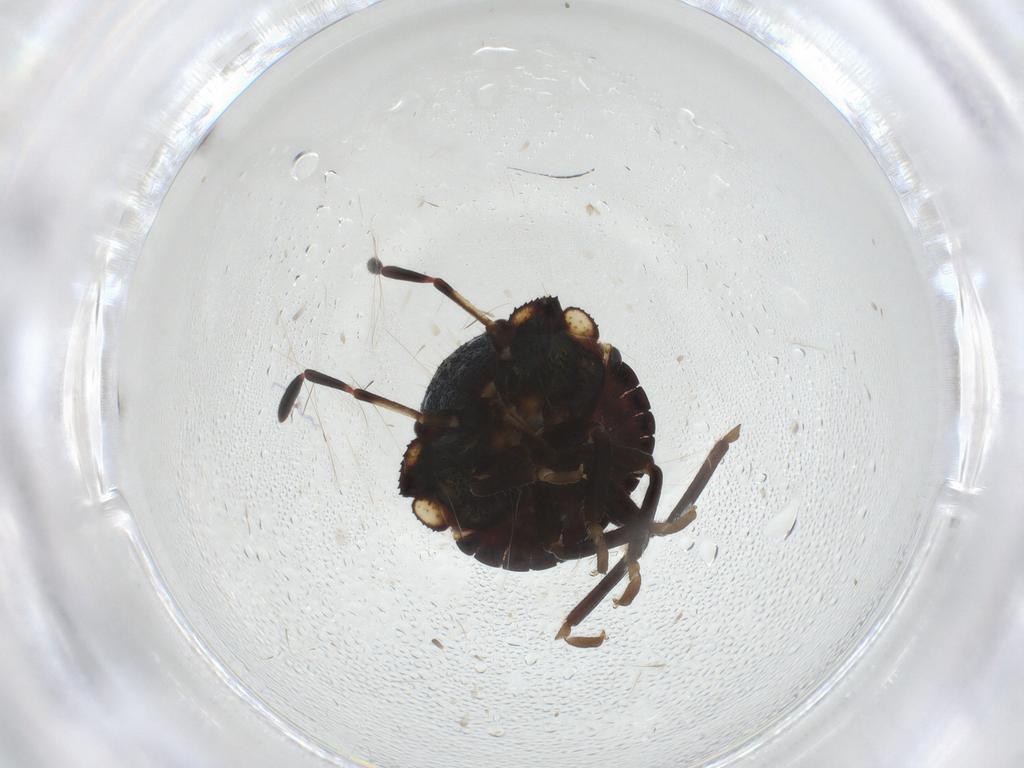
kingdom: Animalia
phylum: Arthropoda
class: Insecta
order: Hemiptera
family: Pentatomidae
